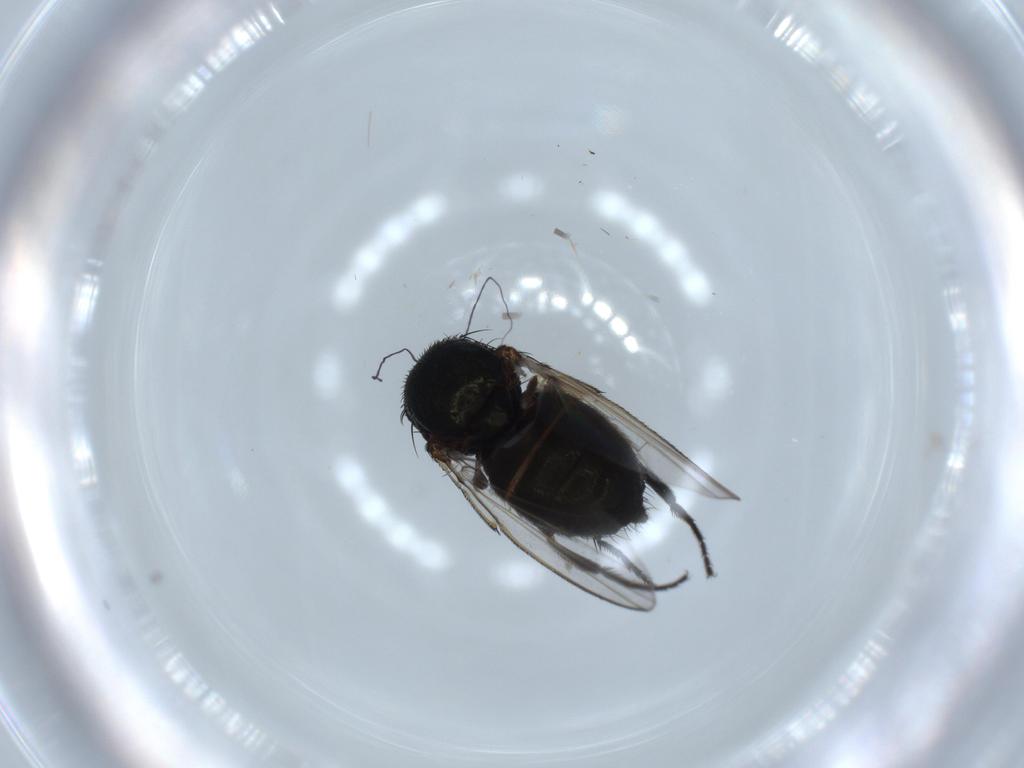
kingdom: Animalia
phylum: Arthropoda
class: Insecta
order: Diptera
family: Milichiidae
